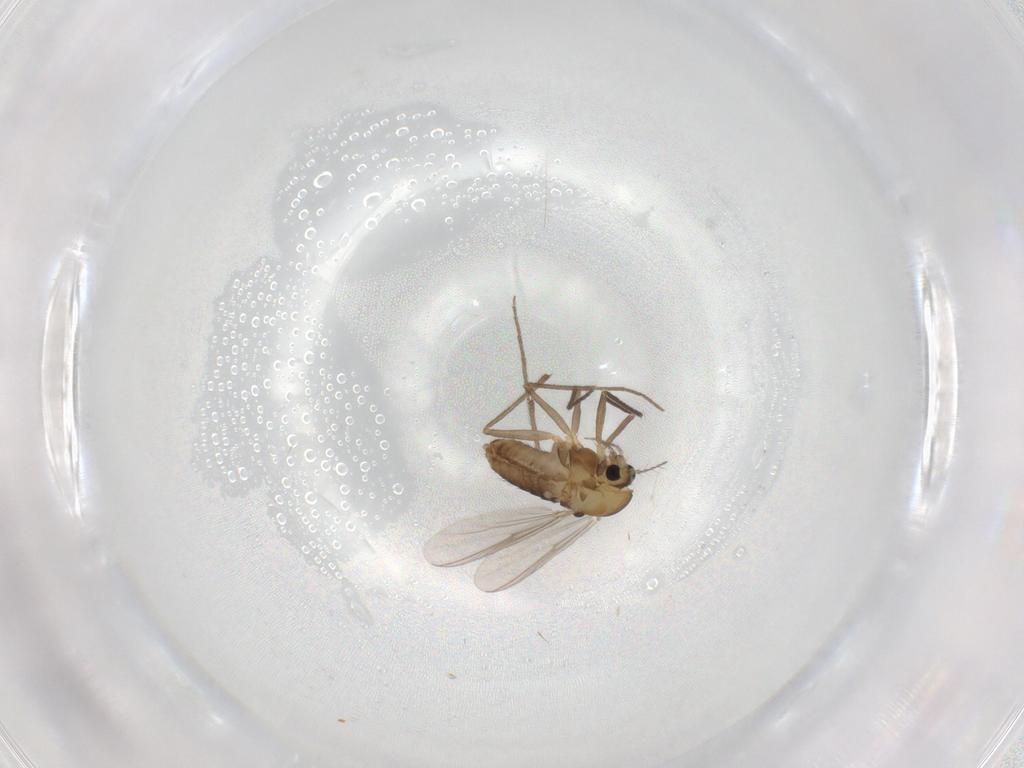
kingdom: Animalia
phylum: Arthropoda
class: Insecta
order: Diptera
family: Chironomidae
